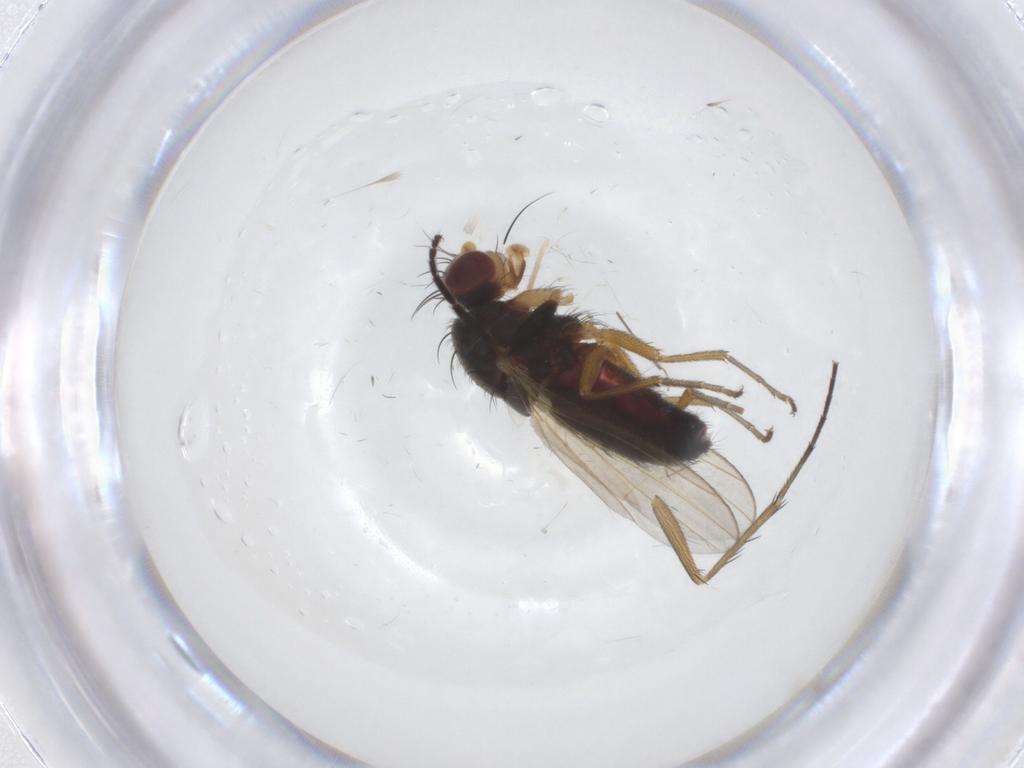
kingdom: Animalia
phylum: Arthropoda
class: Insecta
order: Diptera
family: Heleomyzidae
